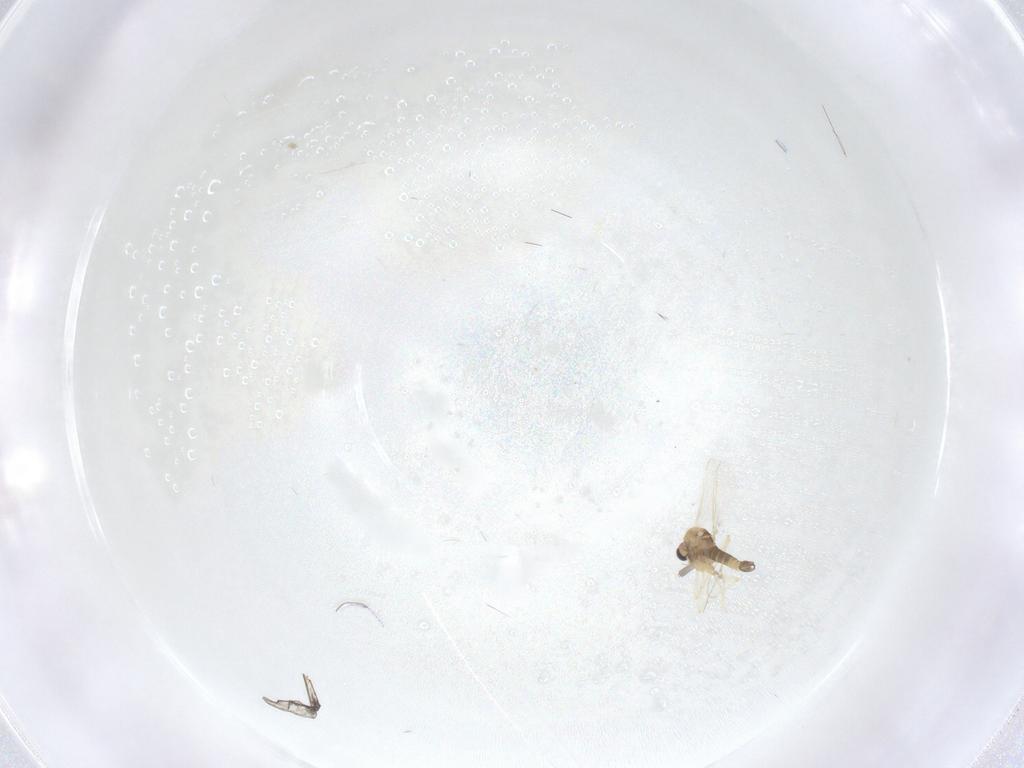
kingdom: Animalia
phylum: Arthropoda
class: Insecta
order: Diptera
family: Chironomidae
